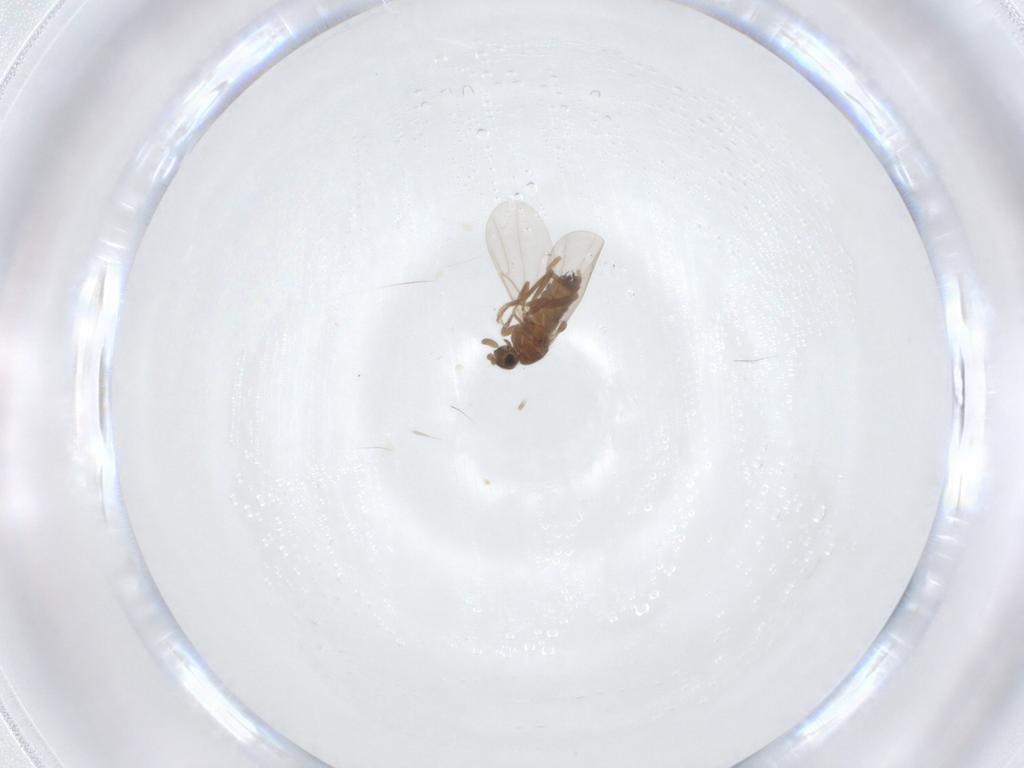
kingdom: Animalia
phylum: Arthropoda
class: Insecta
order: Diptera
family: Phoridae
